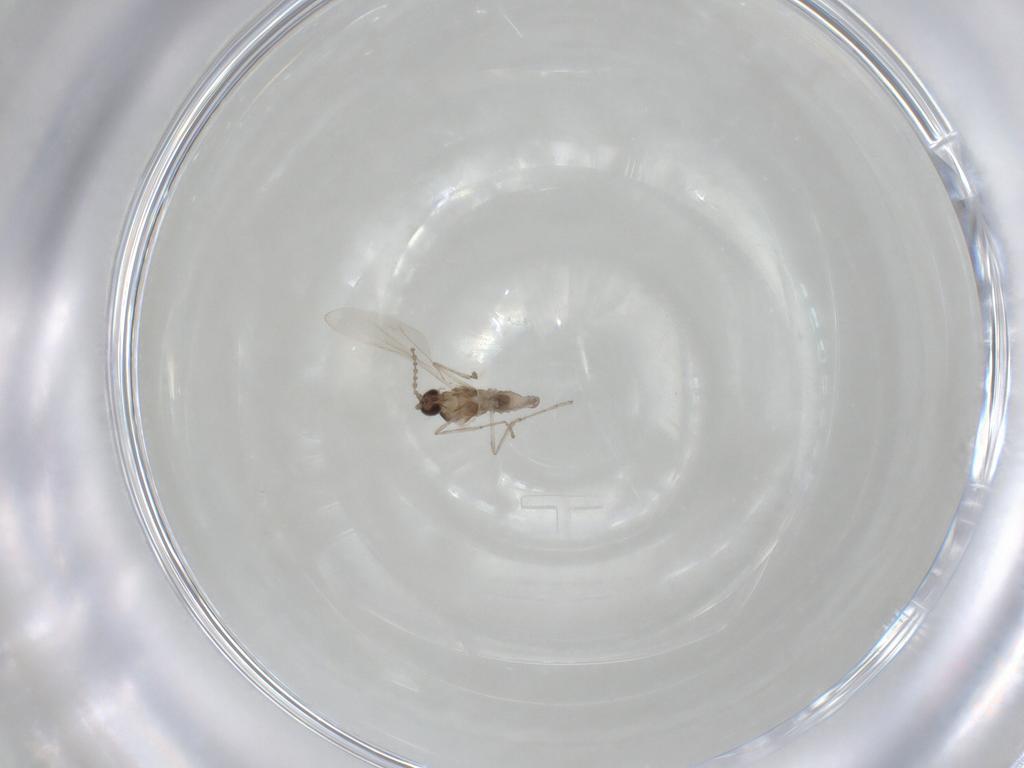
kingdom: Animalia
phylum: Arthropoda
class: Insecta
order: Diptera
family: Cecidomyiidae
